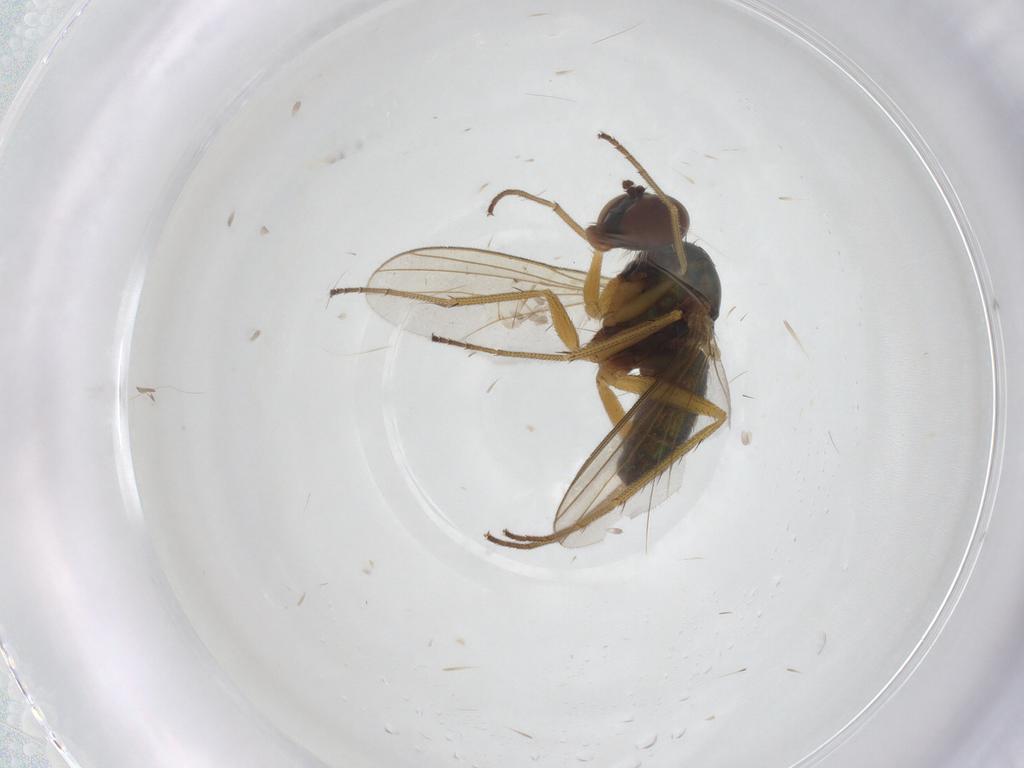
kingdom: Animalia
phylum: Arthropoda
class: Insecta
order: Diptera
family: Dolichopodidae
